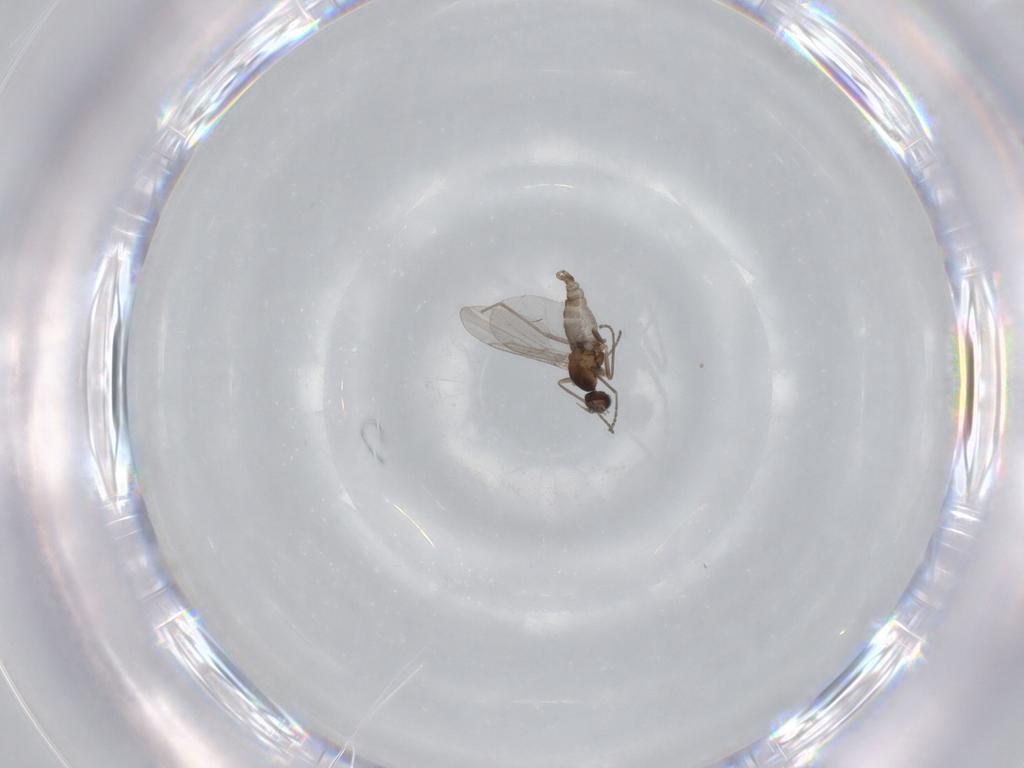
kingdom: Animalia
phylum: Arthropoda
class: Insecta
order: Diptera
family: Cecidomyiidae
